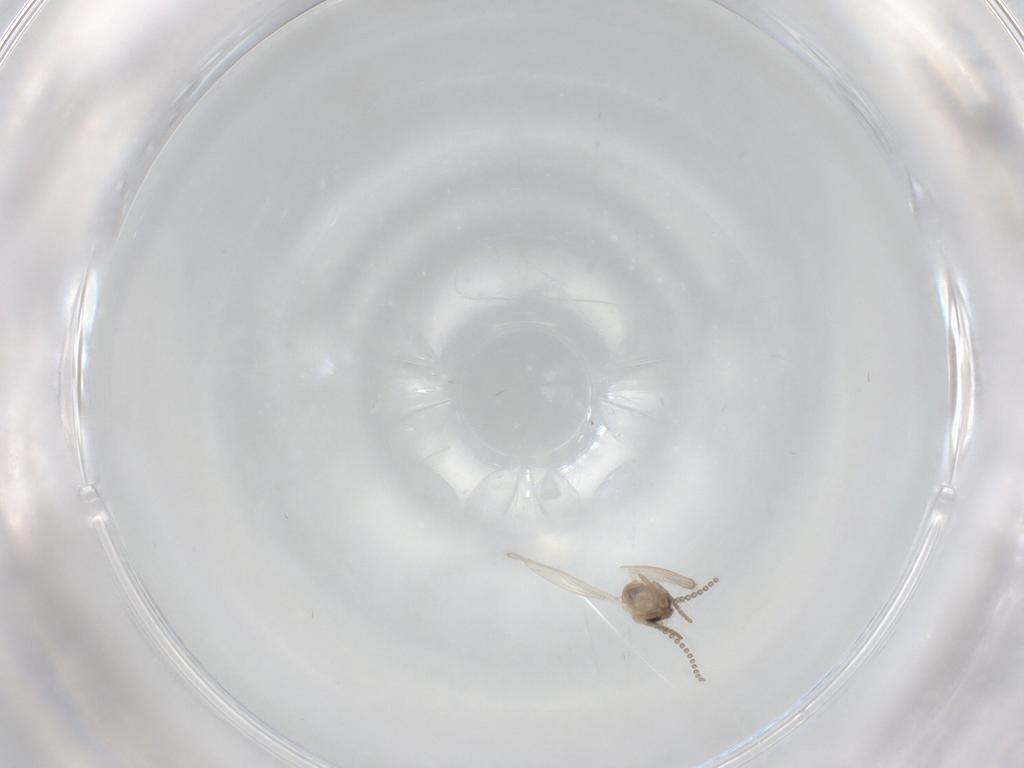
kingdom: Animalia
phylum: Arthropoda
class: Insecta
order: Diptera
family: Psychodidae
